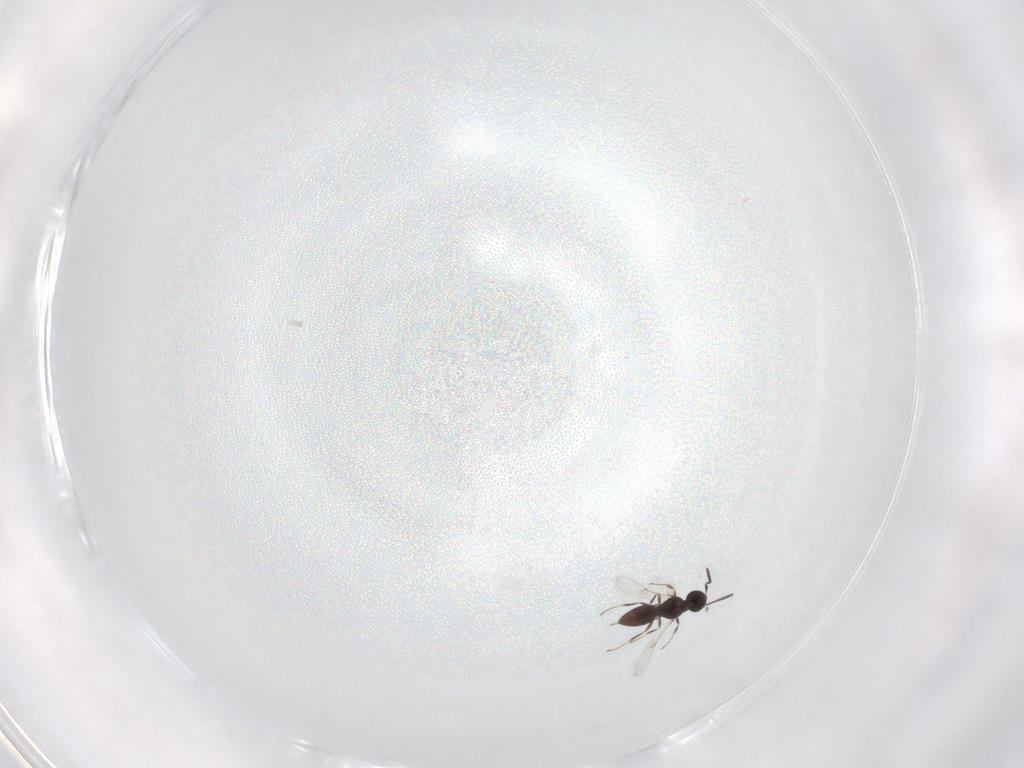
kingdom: Animalia
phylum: Arthropoda
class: Insecta
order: Hymenoptera
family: Scelionidae
